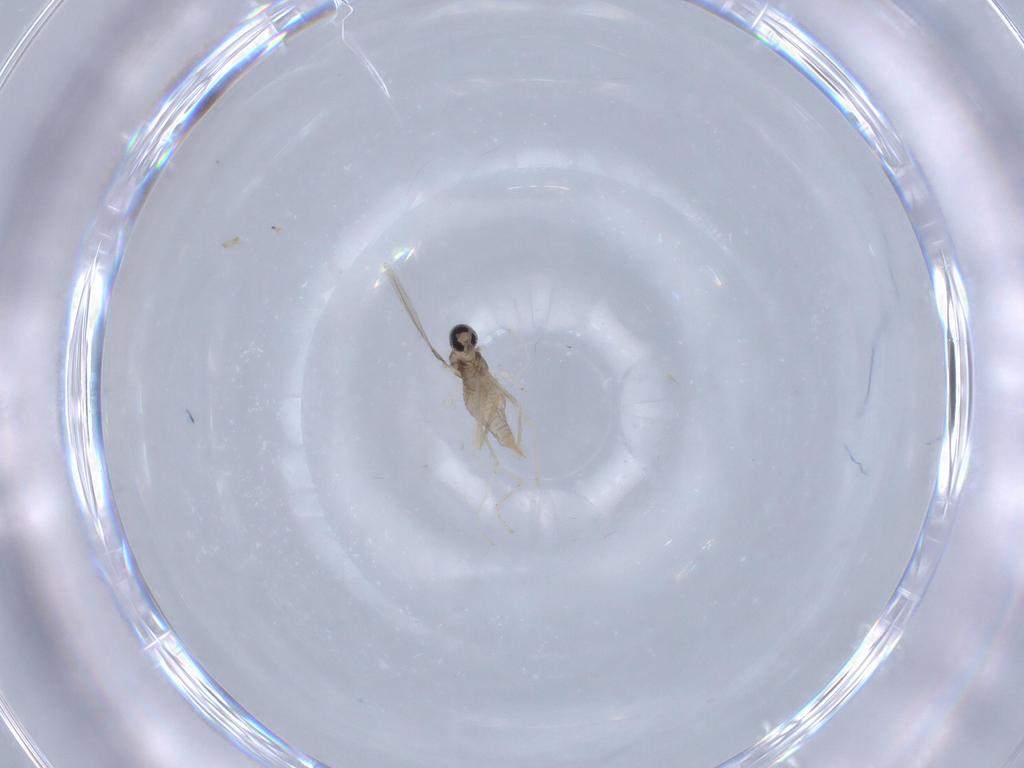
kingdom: Animalia
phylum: Arthropoda
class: Insecta
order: Diptera
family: Cecidomyiidae
